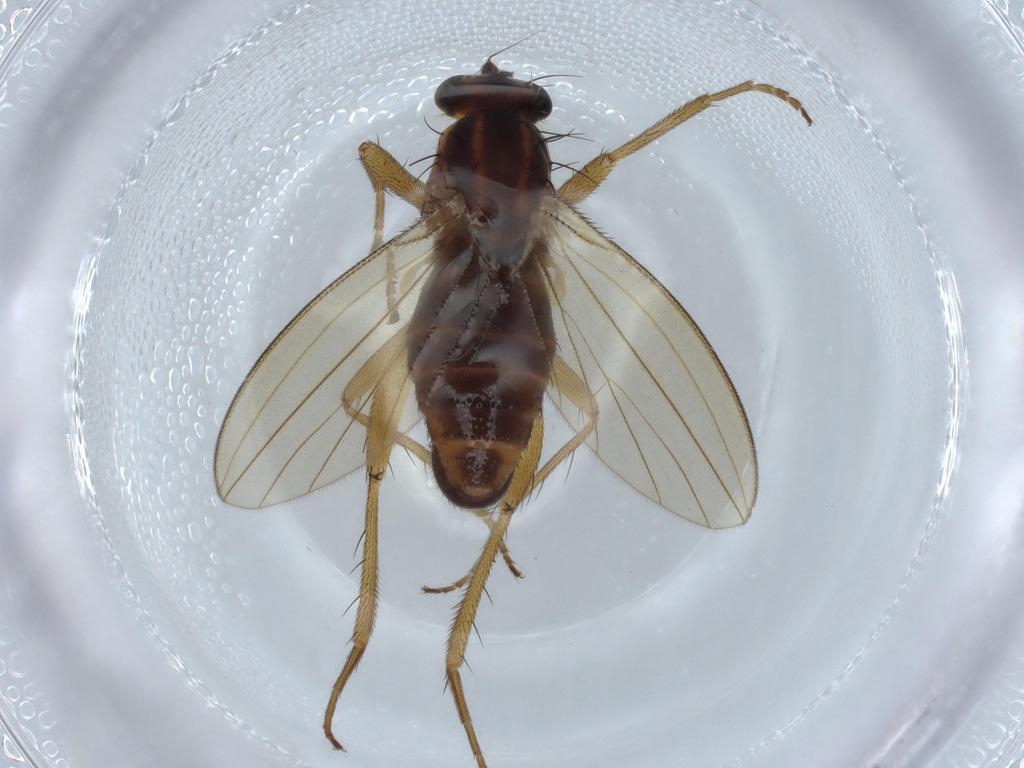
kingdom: Animalia
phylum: Arthropoda
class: Insecta
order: Diptera
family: Lonchopteridae
